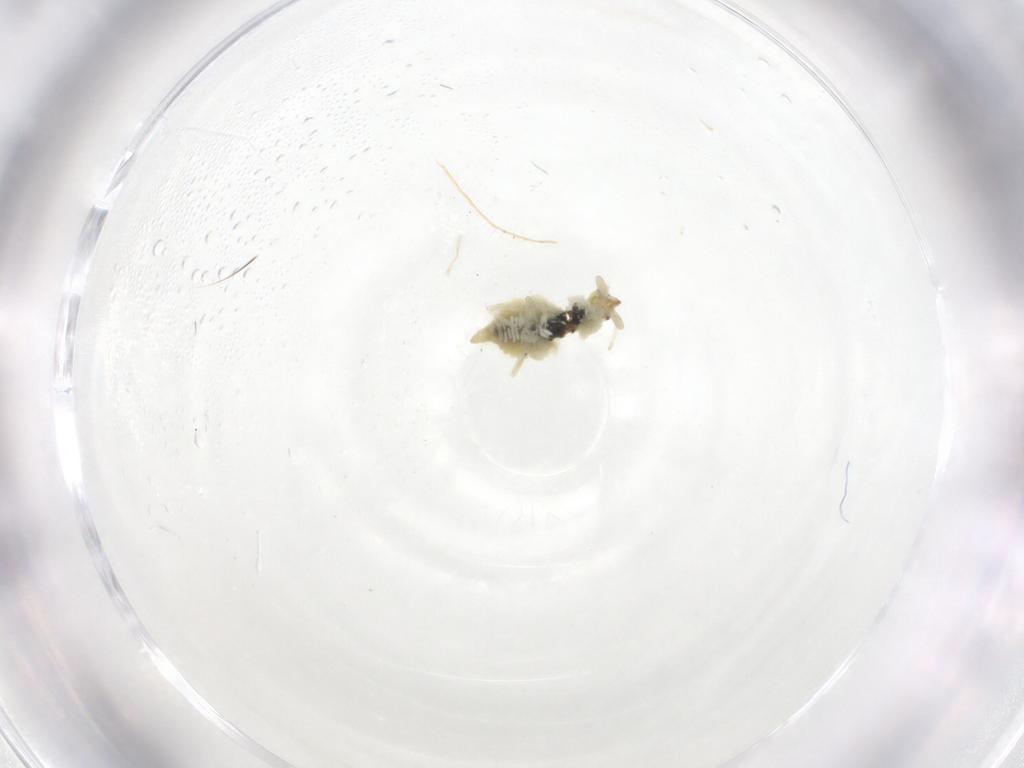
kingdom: Animalia
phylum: Arthropoda
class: Insecta
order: Neuroptera
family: Coniopterygidae
